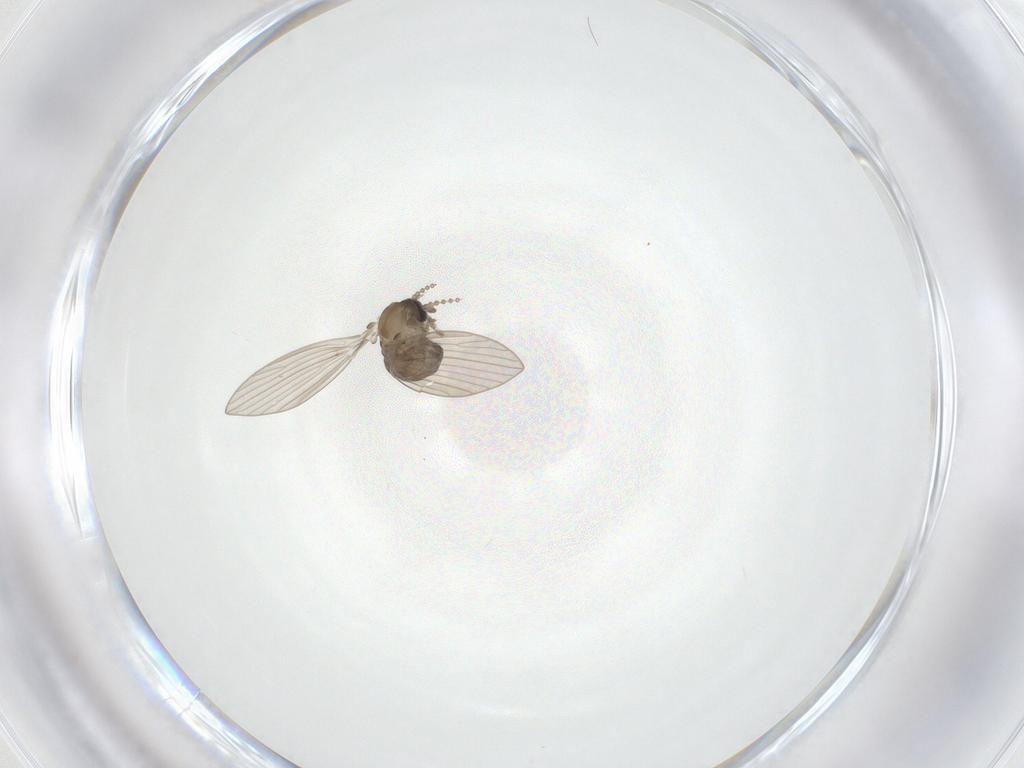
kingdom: Animalia
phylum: Arthropoda
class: Insecta
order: Diptera
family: Psychodidae
